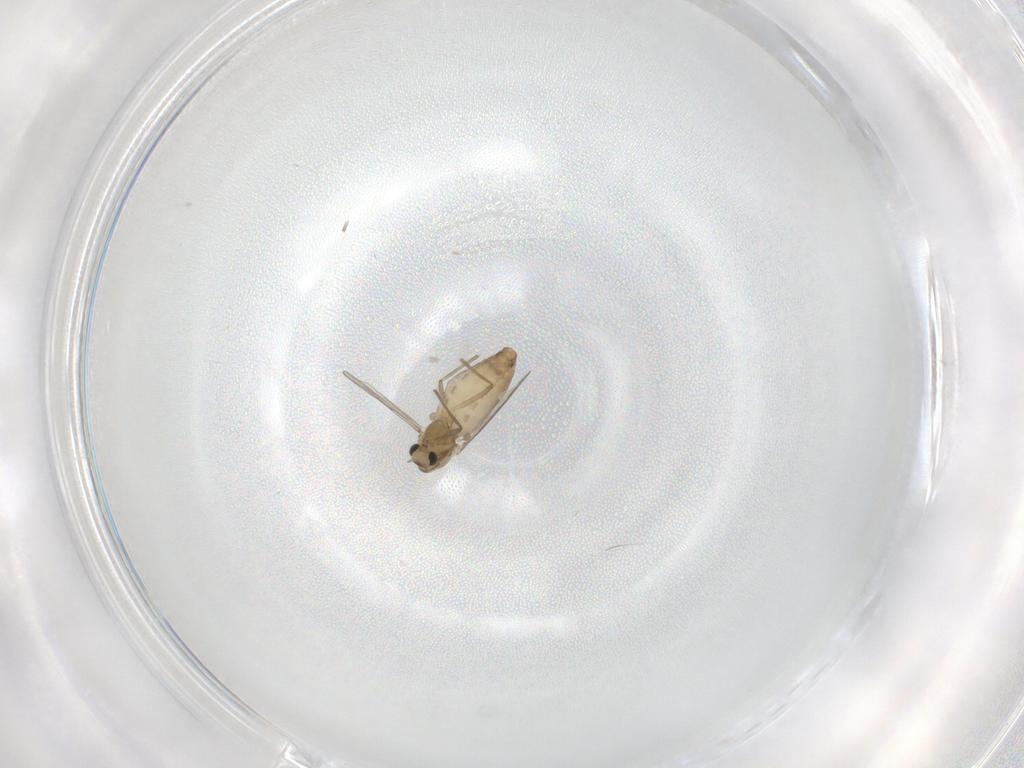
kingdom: Animalia
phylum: Arthropoda
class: Insecta
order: Diptera
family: Chironomidae
